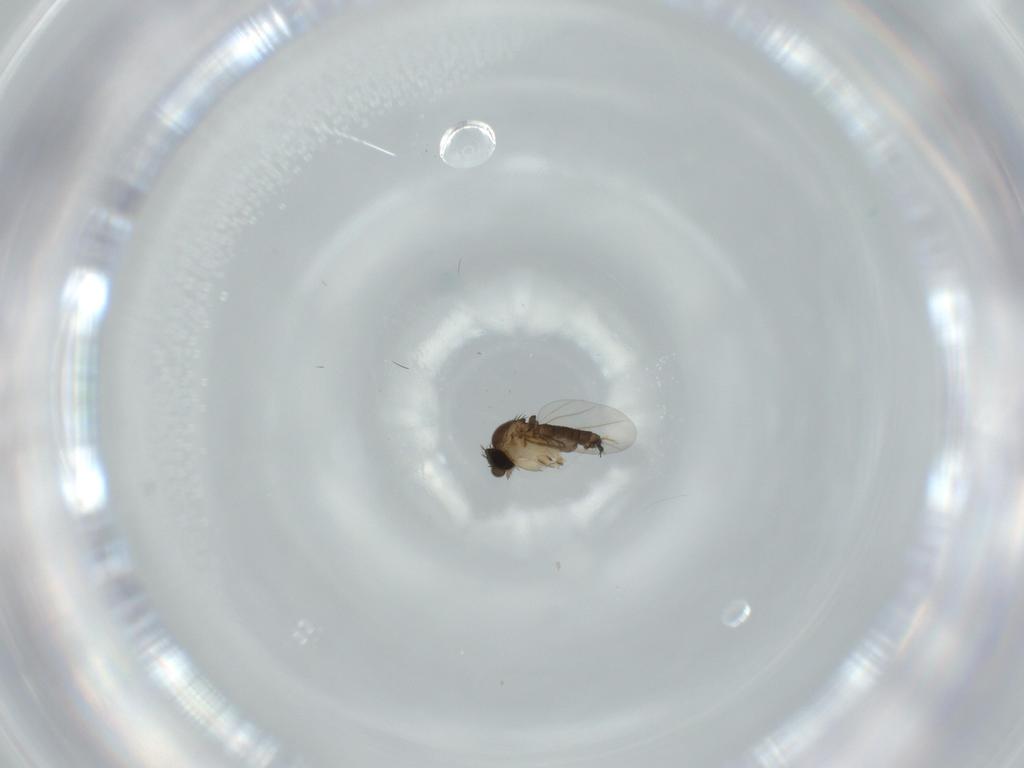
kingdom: Animalia
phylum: Arthropoda
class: Insecta
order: Diptera
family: Phoridae
